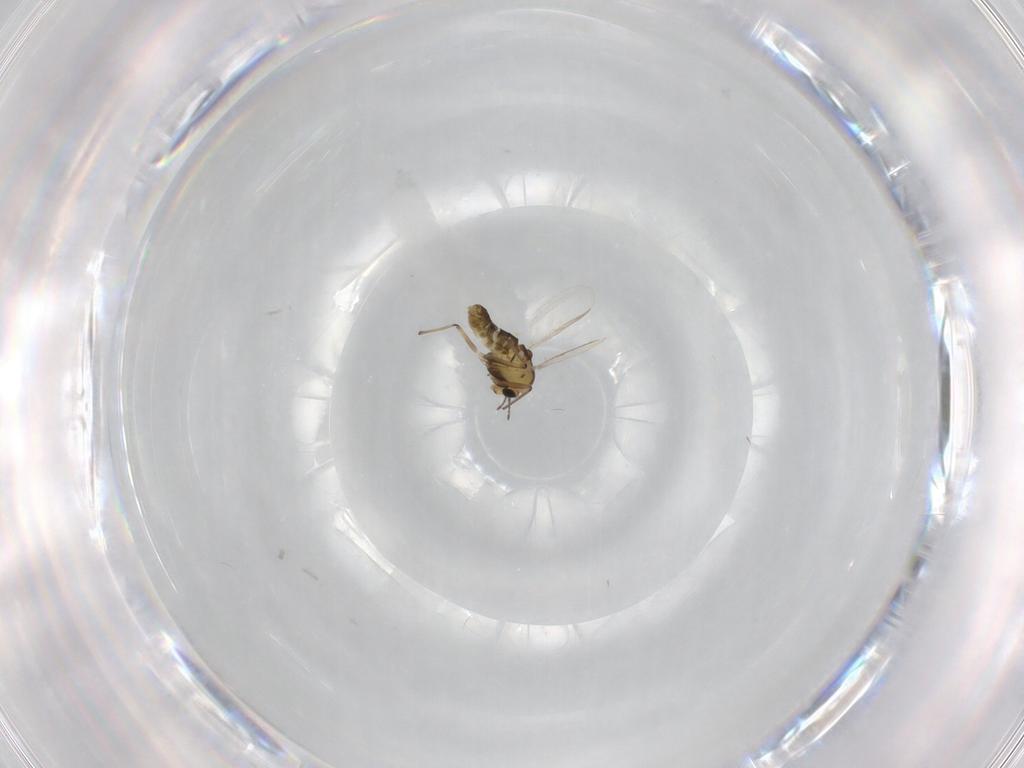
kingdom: Animalia
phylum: Arthropoda
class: Insecta
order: Diptera
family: Chironomidae
